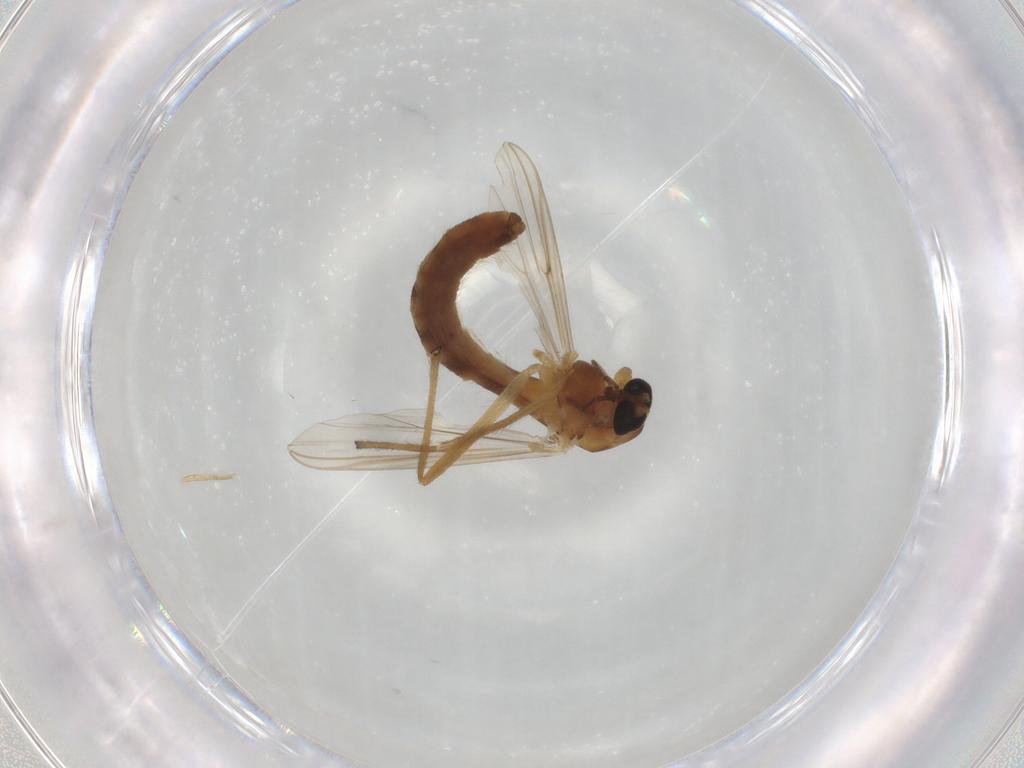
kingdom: Animalia
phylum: Arthropoda
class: Insecta
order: Diptera
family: Chironomidae
